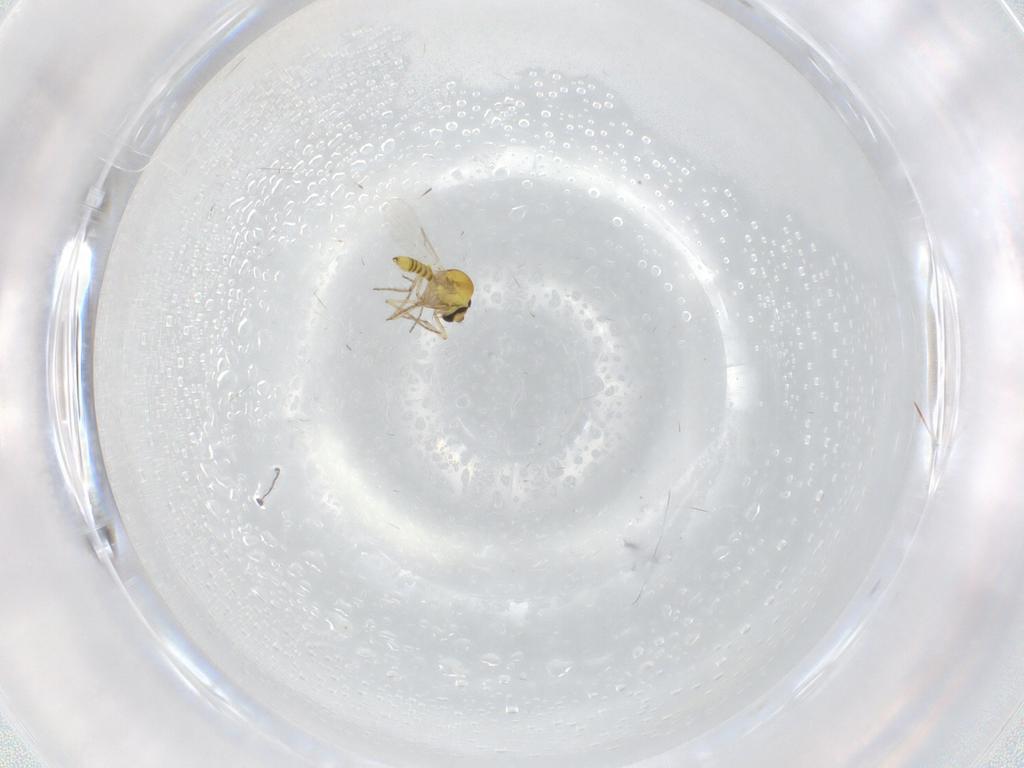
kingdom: Animalia
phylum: Arthropoda
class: Insecta
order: Diptera
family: Ceratopogonidae
